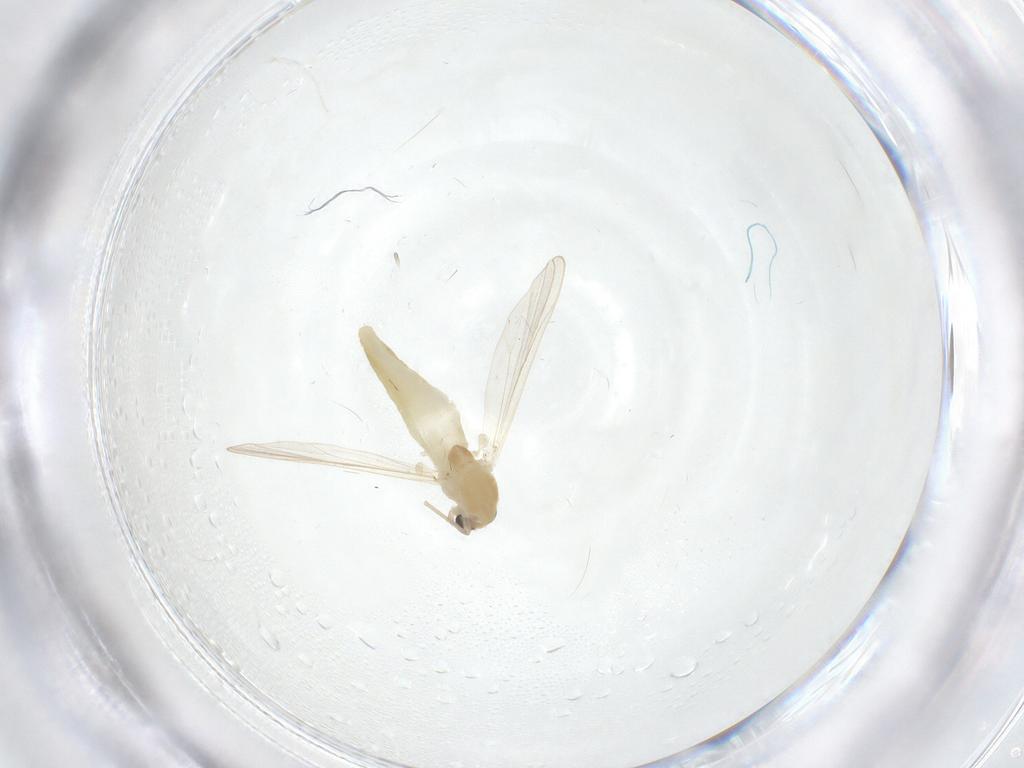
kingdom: Animalia
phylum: Arthropoda
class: Insecta
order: Diptera
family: Chironomidae
